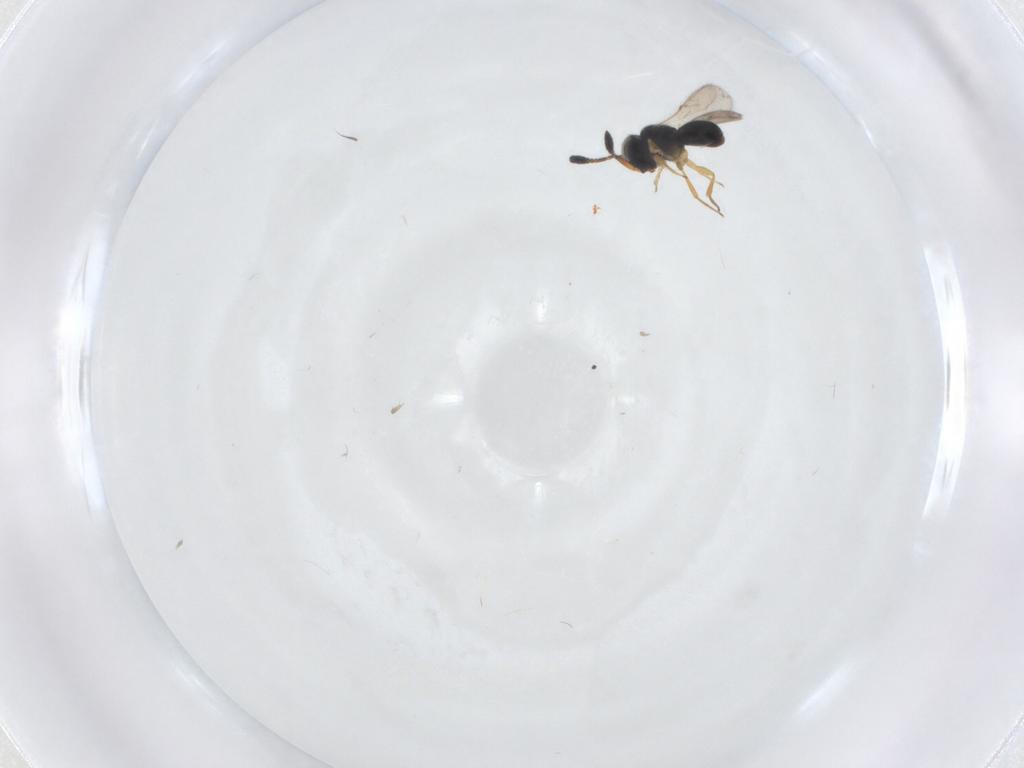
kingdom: Animalia
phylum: Arthropoda
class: Insecta
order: Hymenoptera
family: Scelionidae
